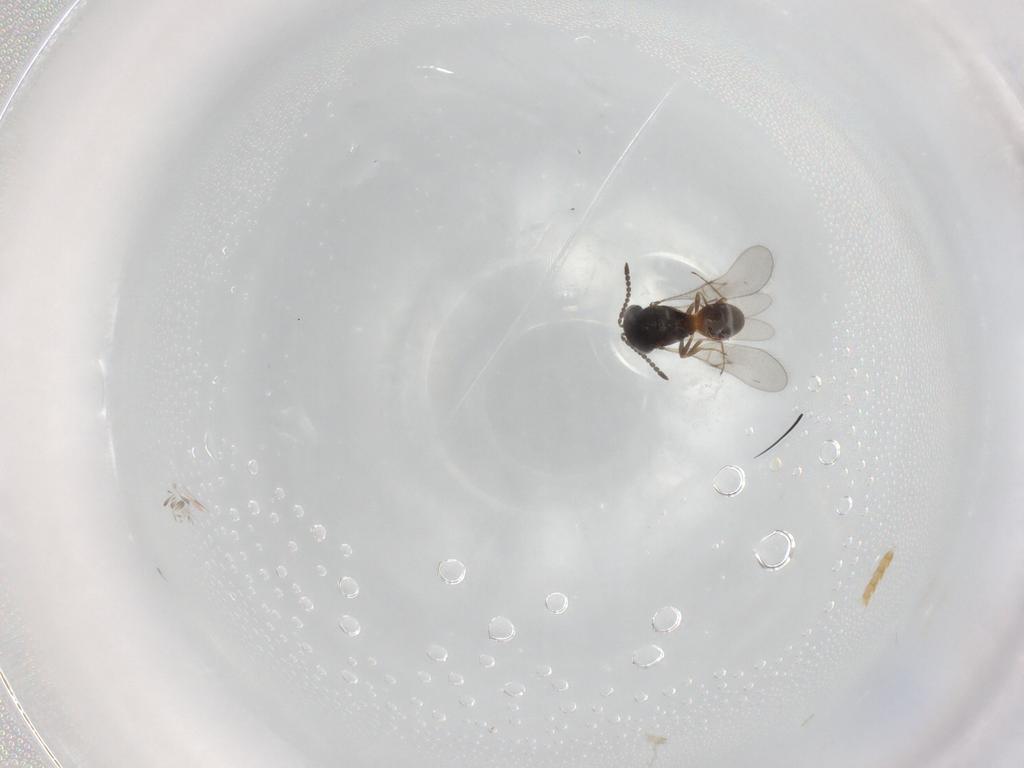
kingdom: Animalia
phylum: Arthropoda
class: Insecta
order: Hymenoptera
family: Scelionidae
